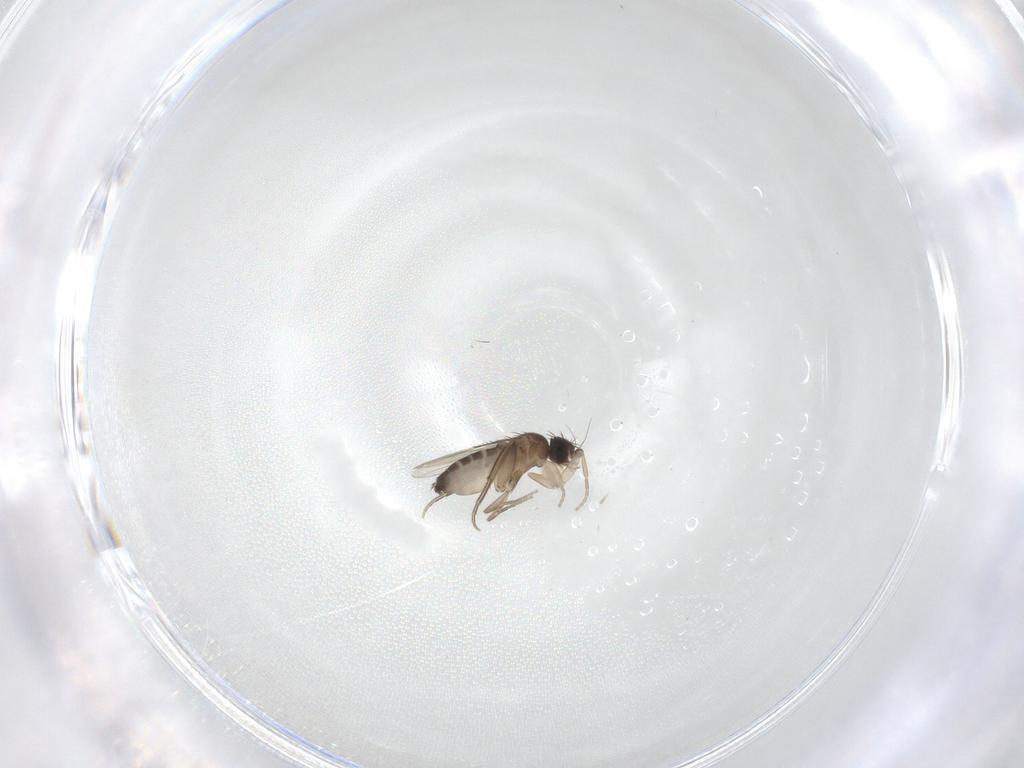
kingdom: Animalia
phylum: Arthropoda
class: Insecta
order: Diptera
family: Phoridae
